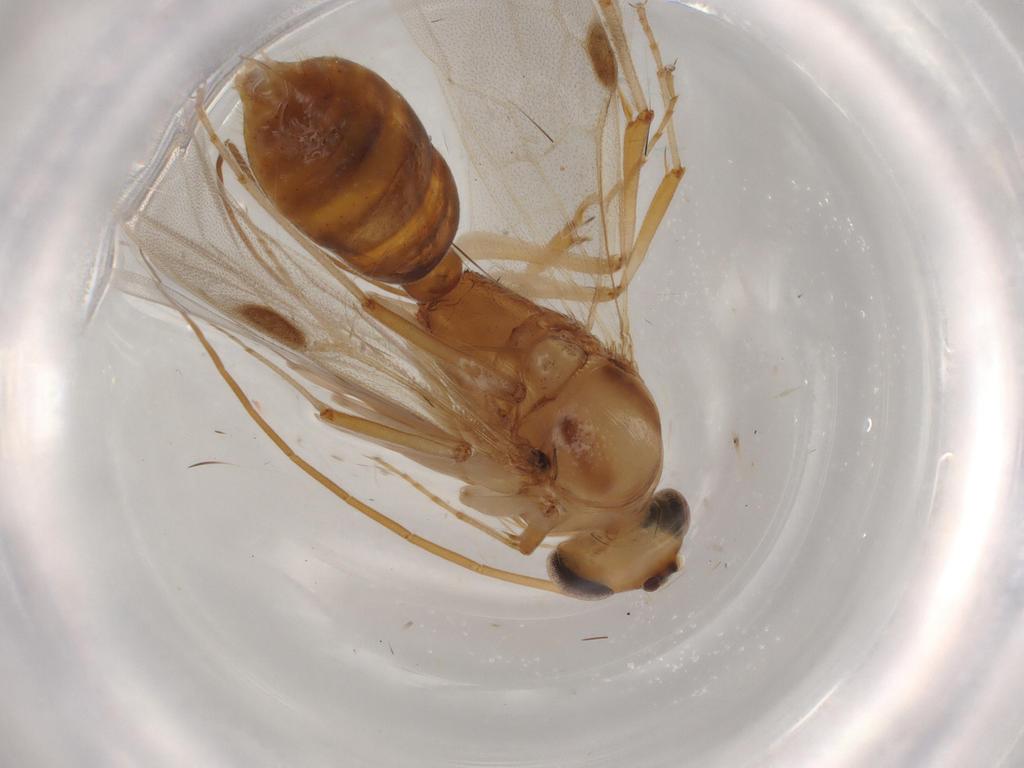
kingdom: Animalia
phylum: Arthropoda
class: Insecta
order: Hymenoptera
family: Formicidae
